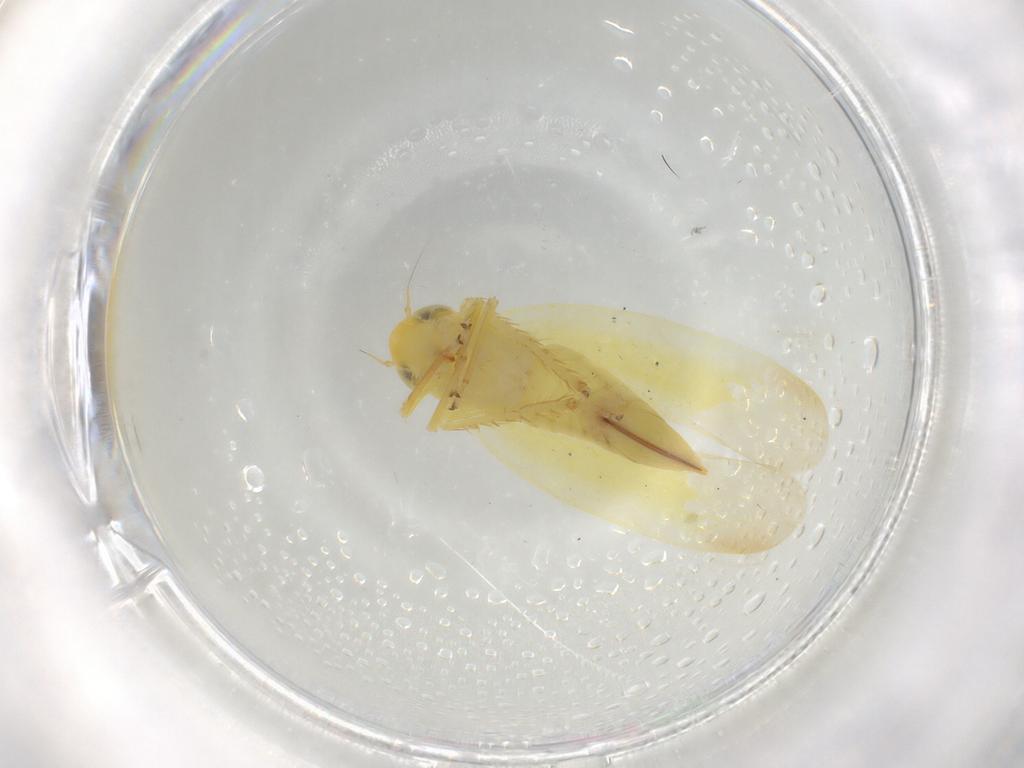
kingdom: Animalia
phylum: Arthropoda
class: Insecta
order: Hemiptera
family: Cicadellidae
